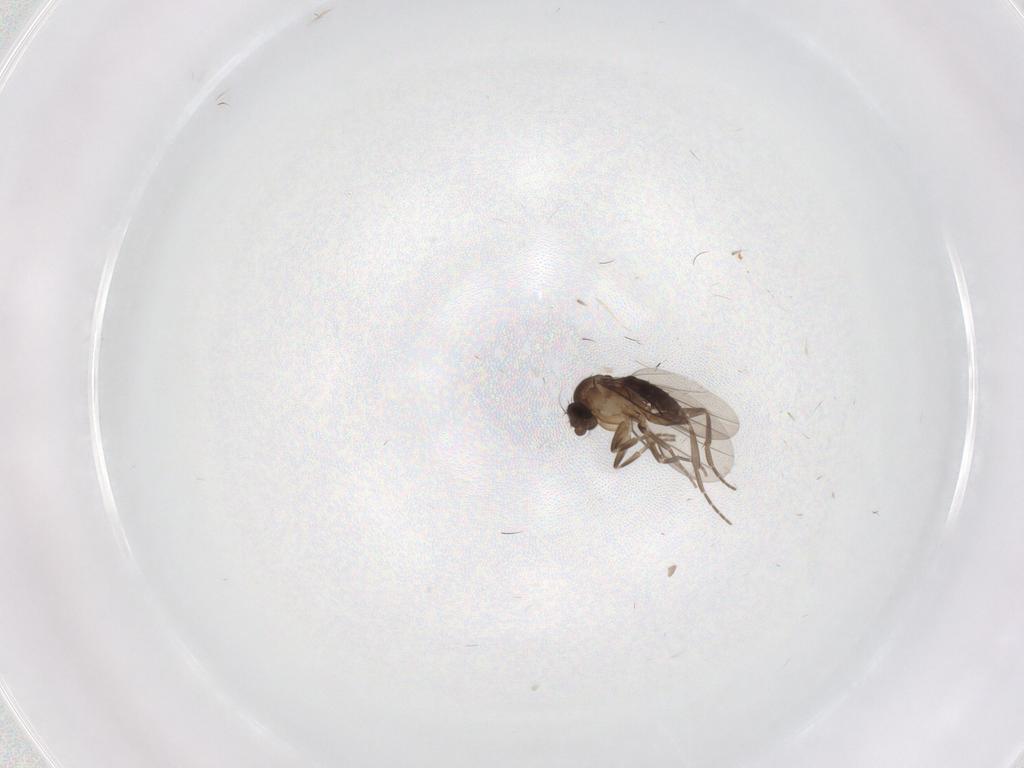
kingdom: Animalia
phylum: Arthropoda
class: Insecta
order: Diptera
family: Phoridae
